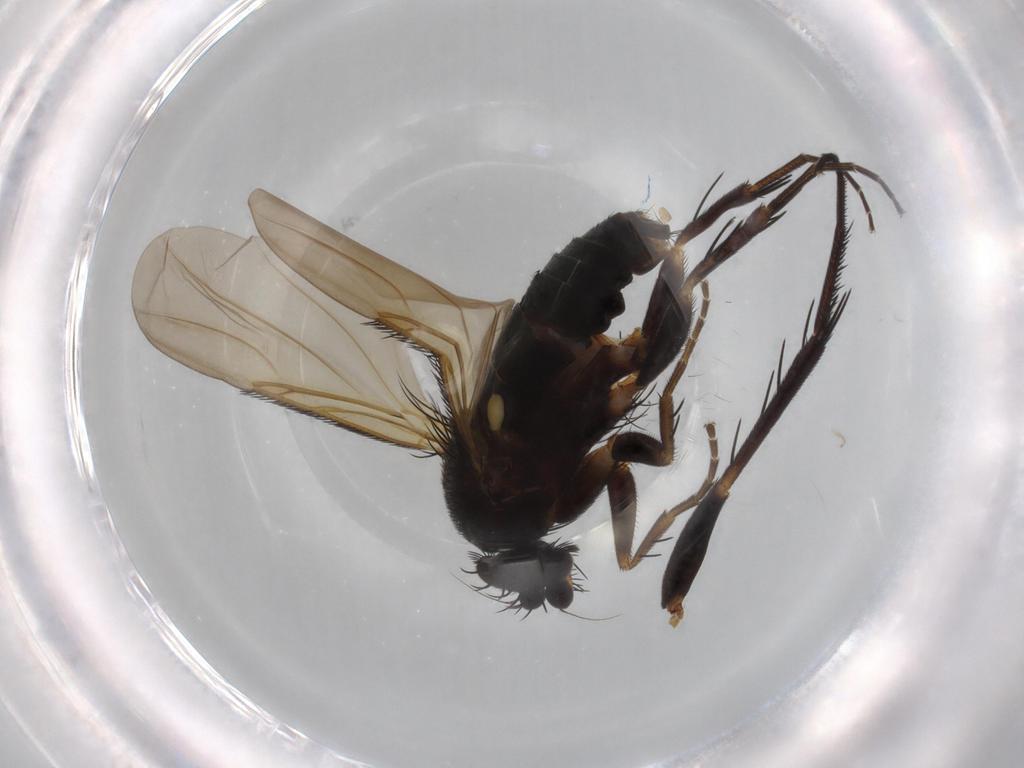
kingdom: Animalia
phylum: Arthropoda
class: Insecta
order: Diptera
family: Phoridae
